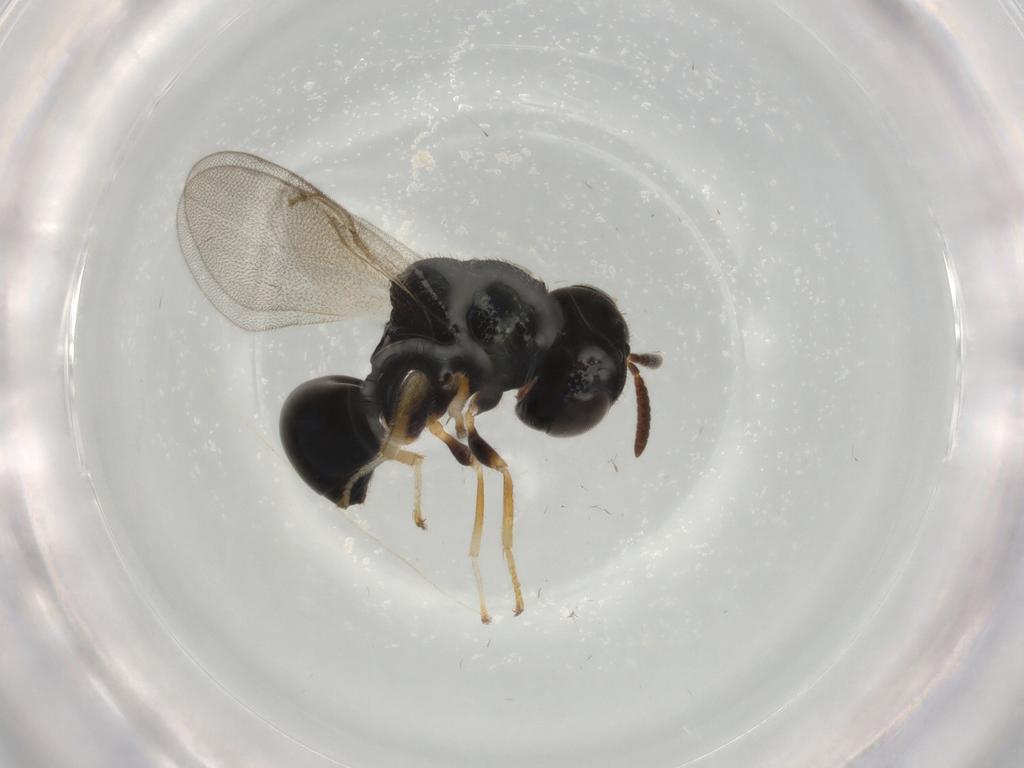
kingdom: Animalia
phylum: Arthropoda
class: Insecta
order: Hymenoptera
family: Perilampidae
